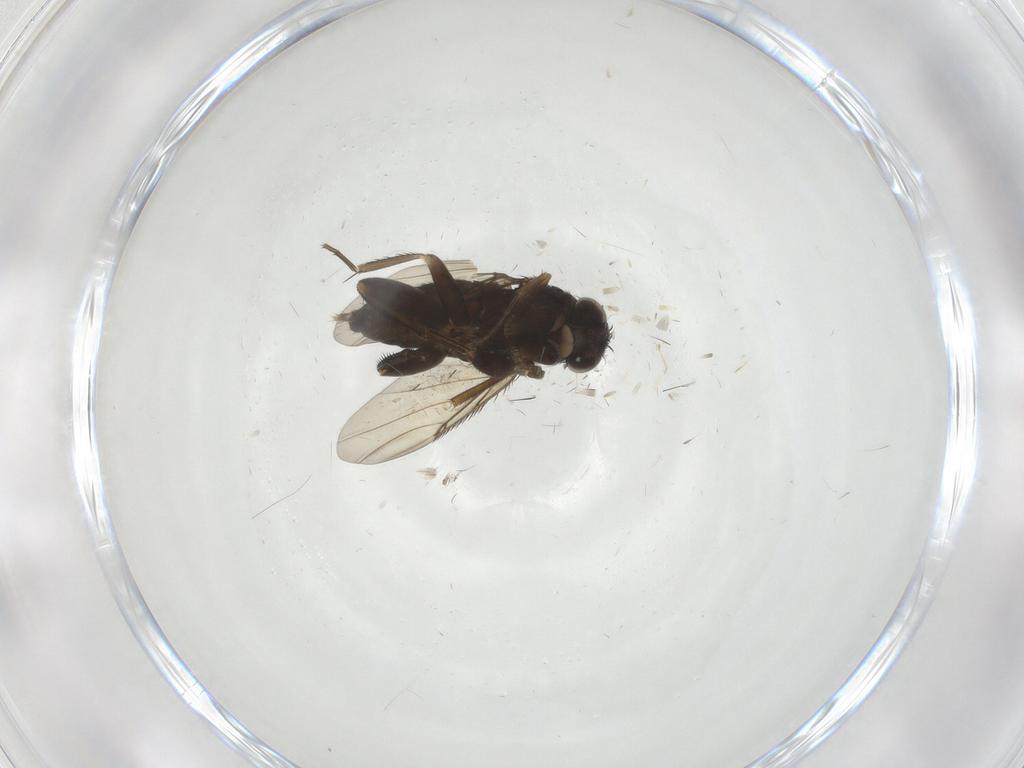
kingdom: Animalia
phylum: Arthropoda
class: Insecta
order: Diptera
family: Phoridae
